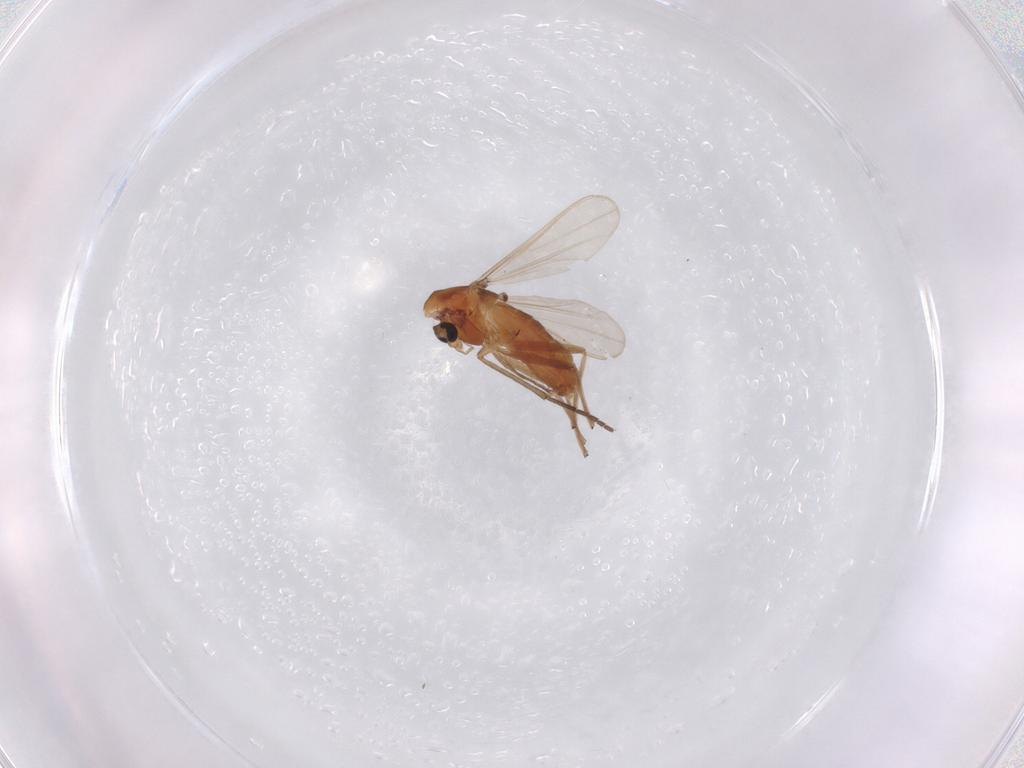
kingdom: Animalia
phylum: Arthropoda
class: Insecta
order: Diptera
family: Chironomidae
